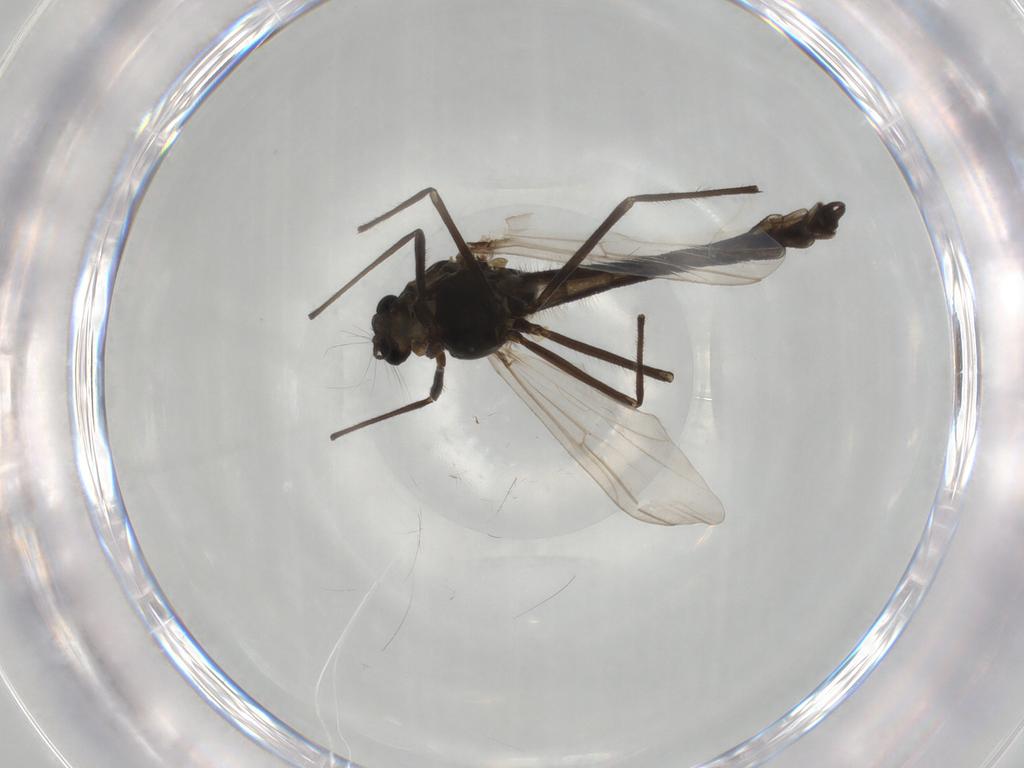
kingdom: Animalia
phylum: Arthropoda
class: Insecta
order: Diptera
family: Chironomidae
